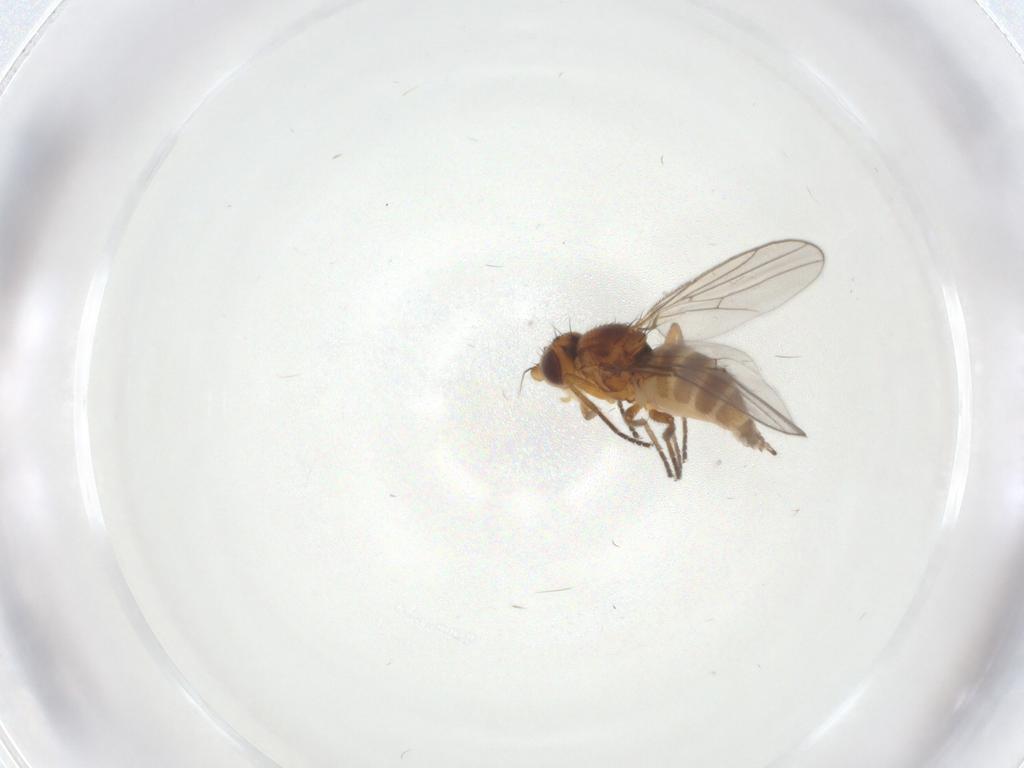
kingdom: Animalia
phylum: Arthropoda
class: Insecta
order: Diptera
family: Chloropidae
